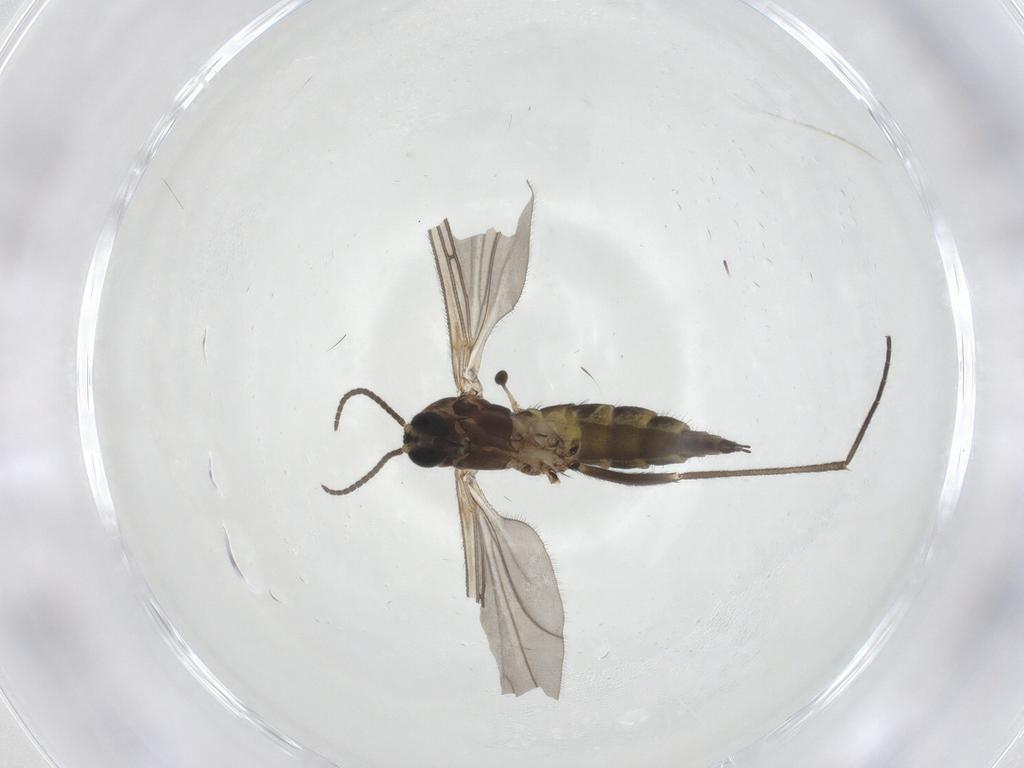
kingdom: Animalia
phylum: Arthropoda
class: Insecta
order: Diptera
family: Sciaridae
